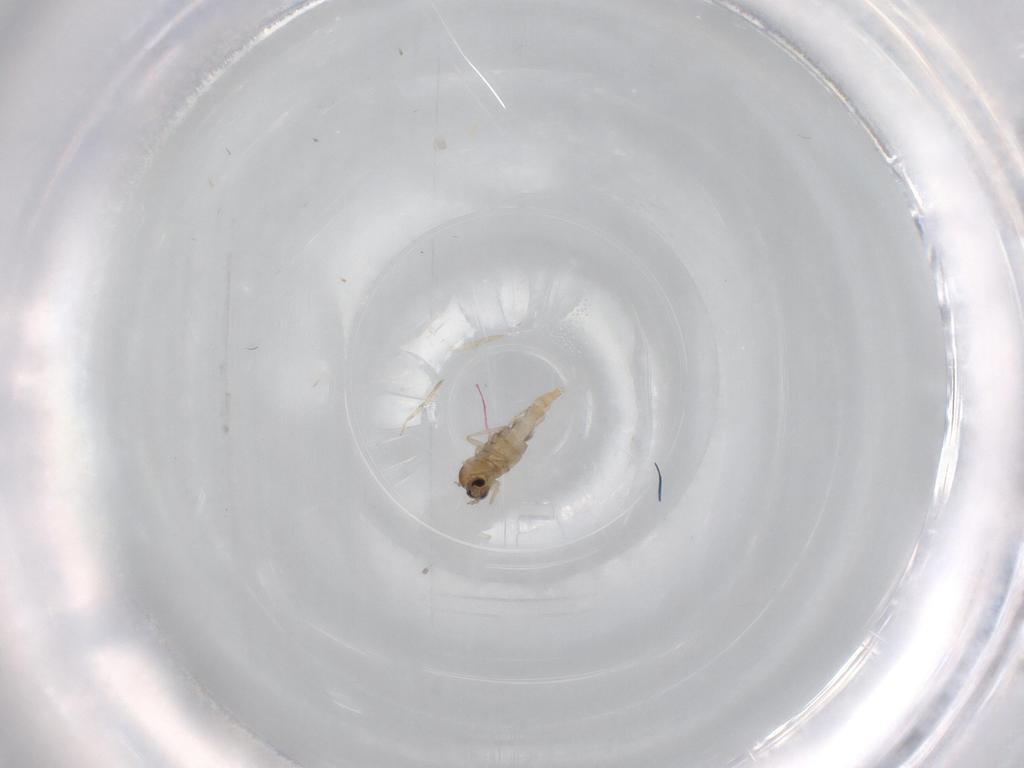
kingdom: Animalia
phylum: Arthropoda
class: Insecta
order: Diptera
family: Cecidomyiidae
